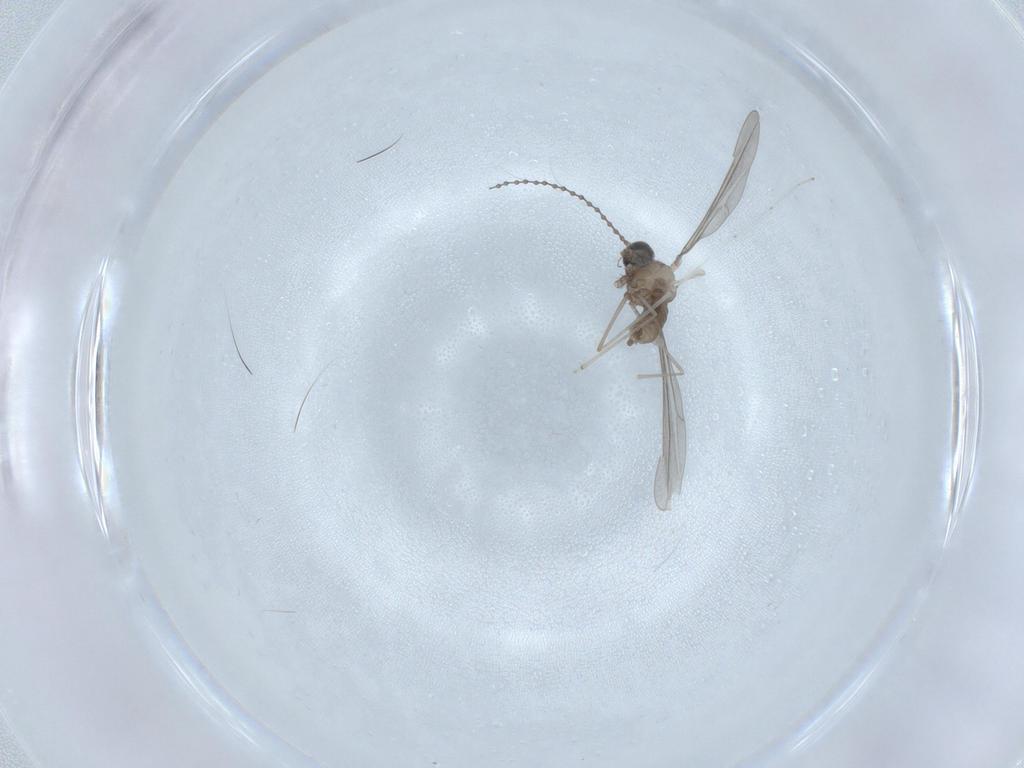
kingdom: Animalia
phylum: Arthropoda
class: Insecta
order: Diptera
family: Cecidomyiidae
